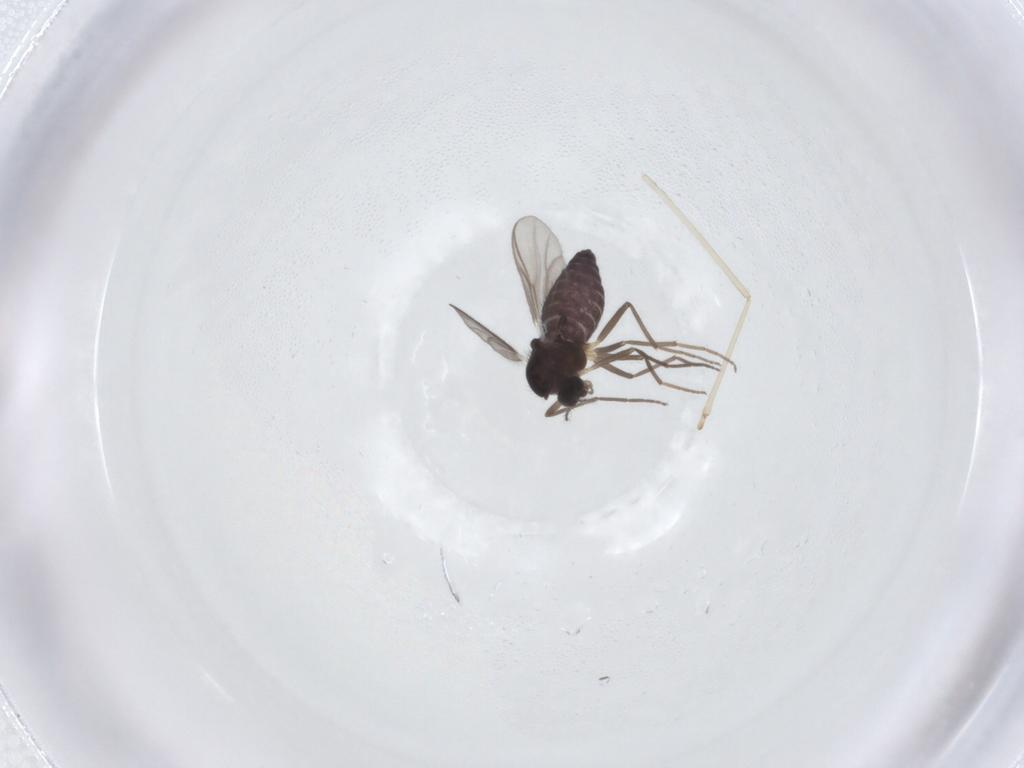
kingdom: Animalia
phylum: Arthropoda
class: Insecta
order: Diptera
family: Chironomidae
